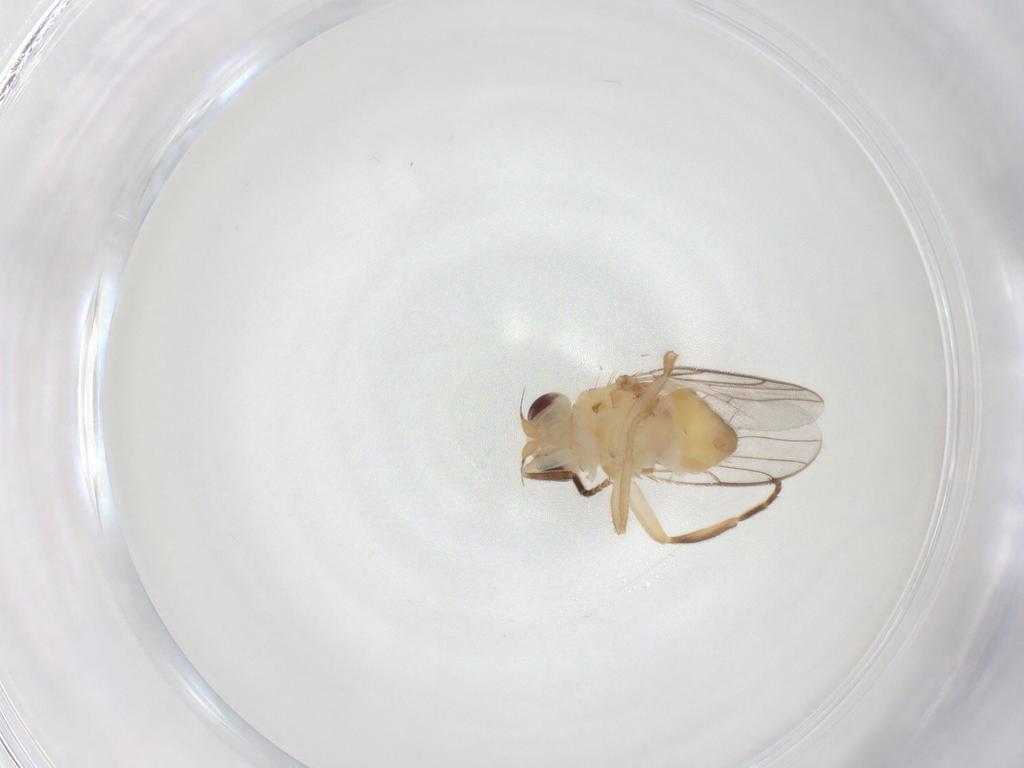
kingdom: Animalia
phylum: Arthropoda
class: Insecta
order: Diptera
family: Chloropidae
